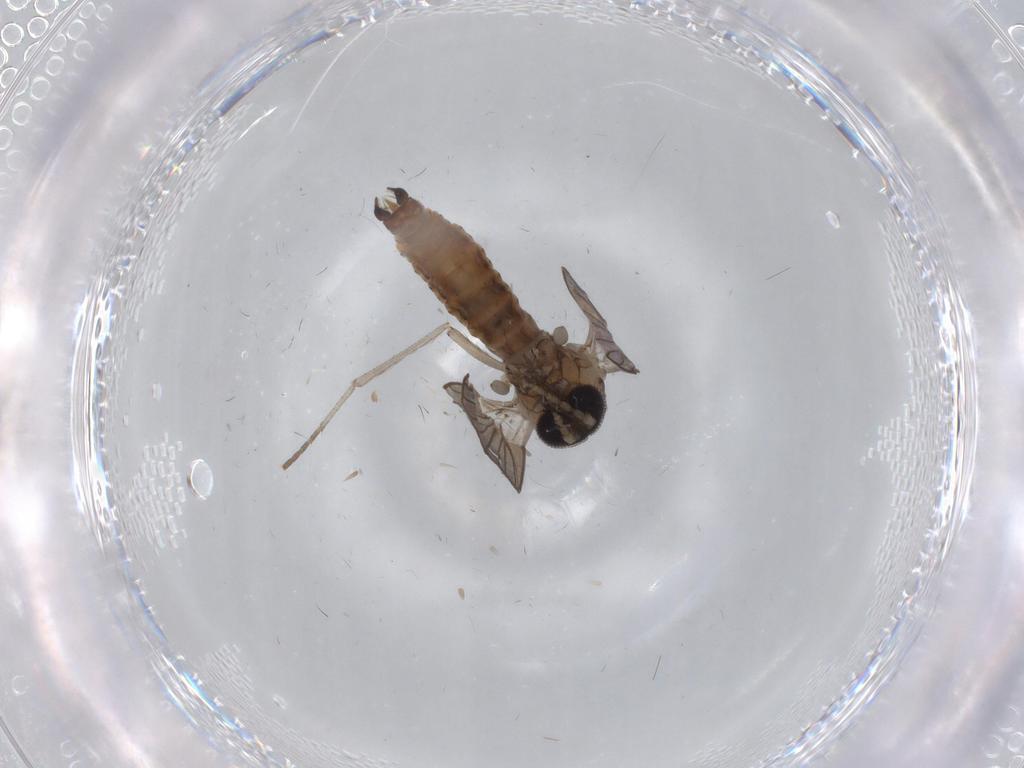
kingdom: Animalia
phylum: Arthropoda
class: Insecta
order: Diptera
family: Cecidomyiidae
